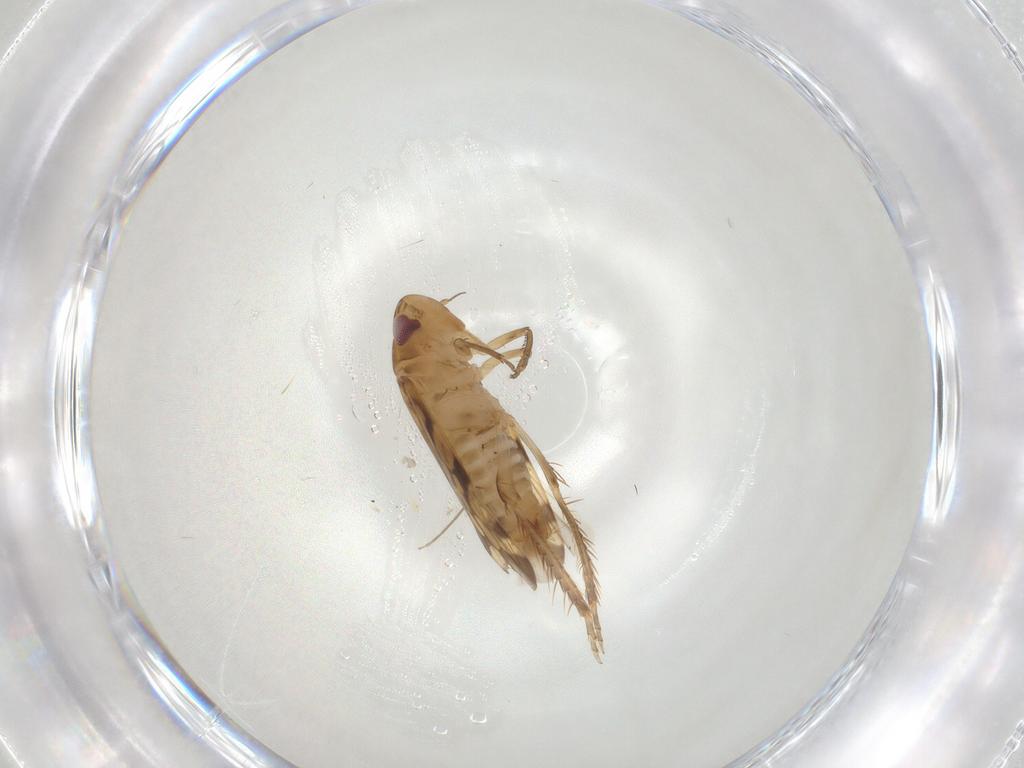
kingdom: Animalia
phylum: Arthropoda
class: Insecta
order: Hemiptera
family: Cicadellidae
